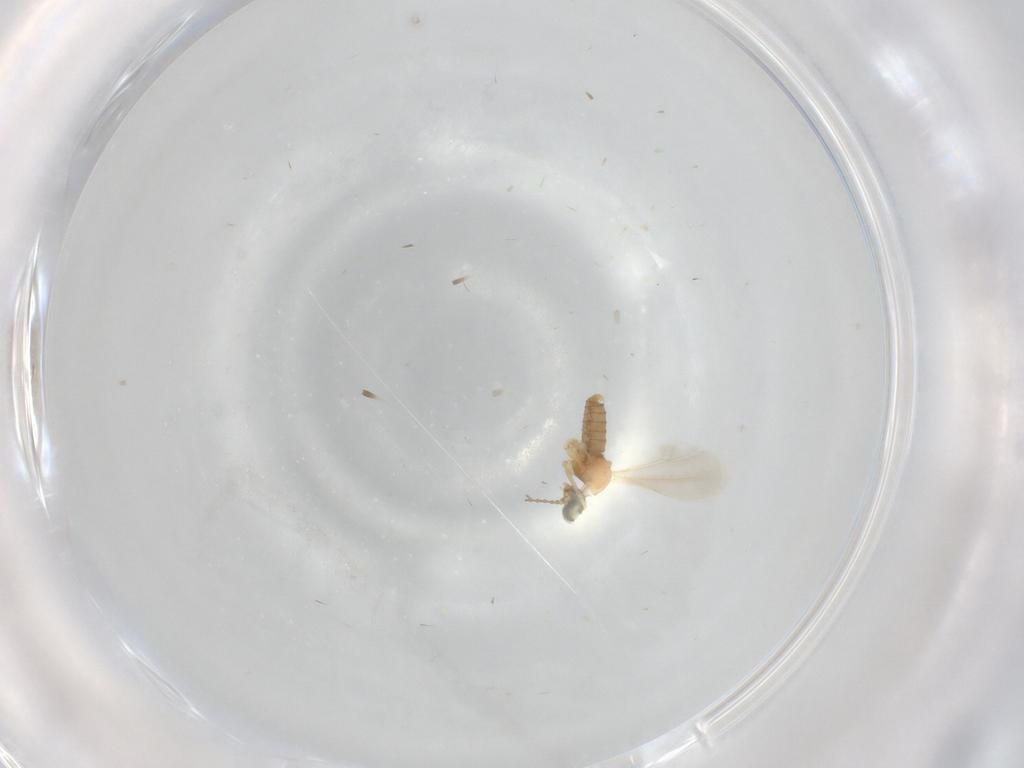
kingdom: Animalia
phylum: Arthropoda
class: Insecta
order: Diptera
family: Cecidomyiidae
